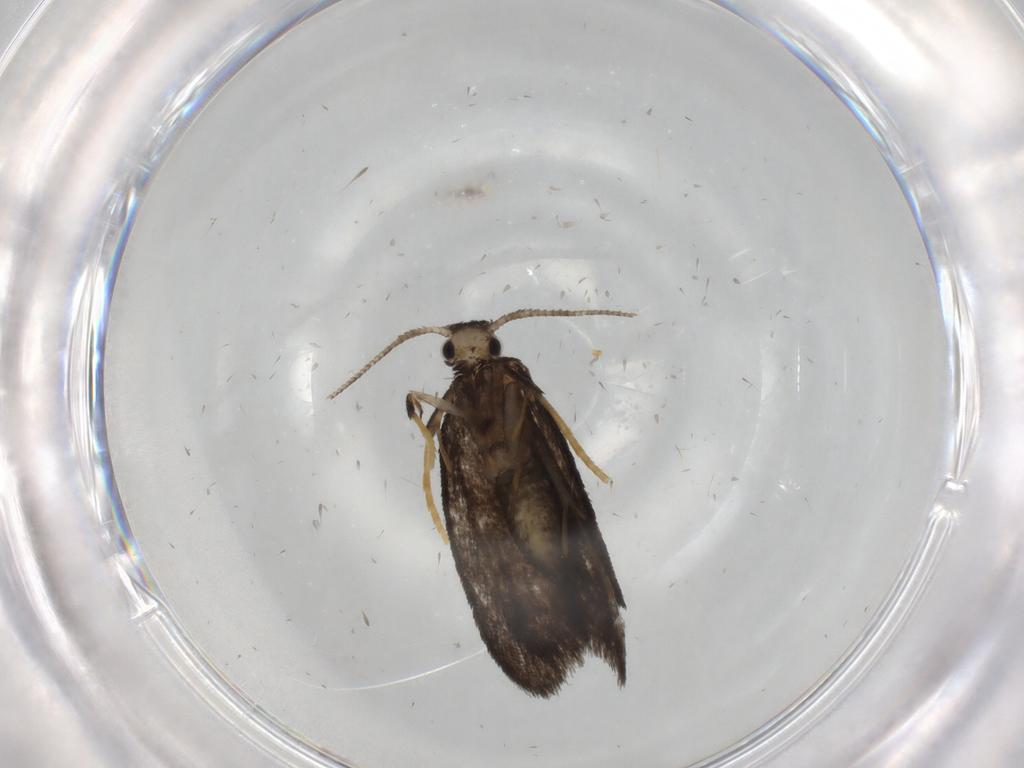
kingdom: Animalia
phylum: Arthropoda
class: Insecta
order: Lepidoptera
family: Psychidae
